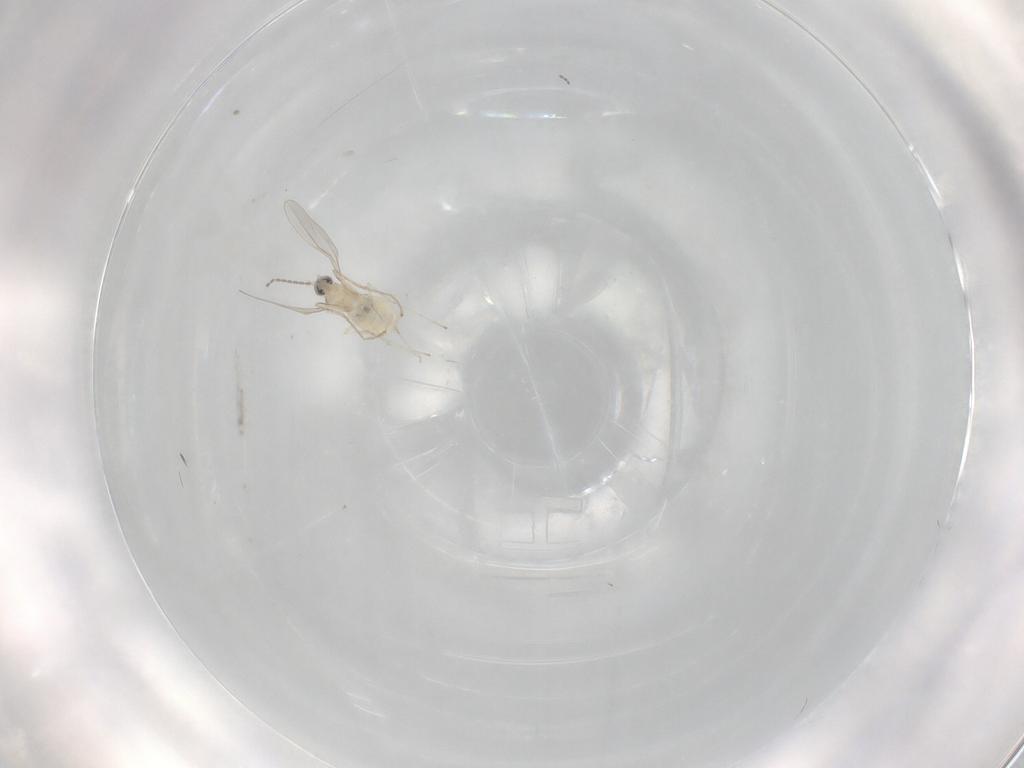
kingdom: Animalia
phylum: Arthropoda
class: Insecta
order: Diptera
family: Cecidomyiidae
